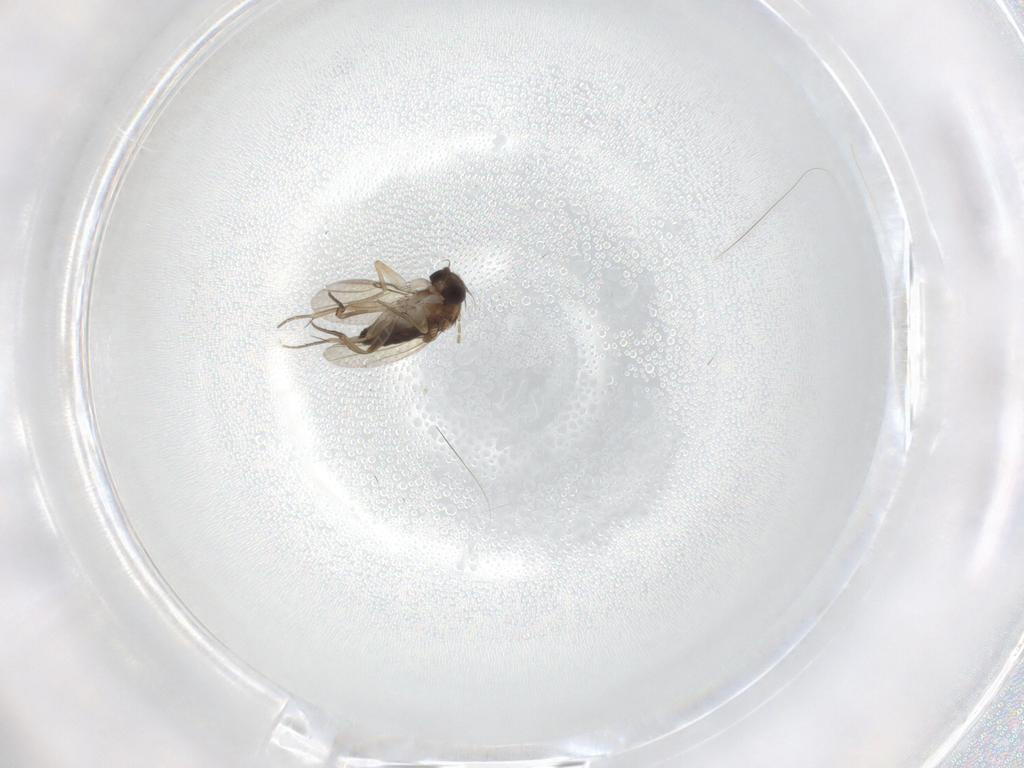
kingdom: Animalia
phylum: Arthropoda
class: Insecta
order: Diptera
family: Phoridae
